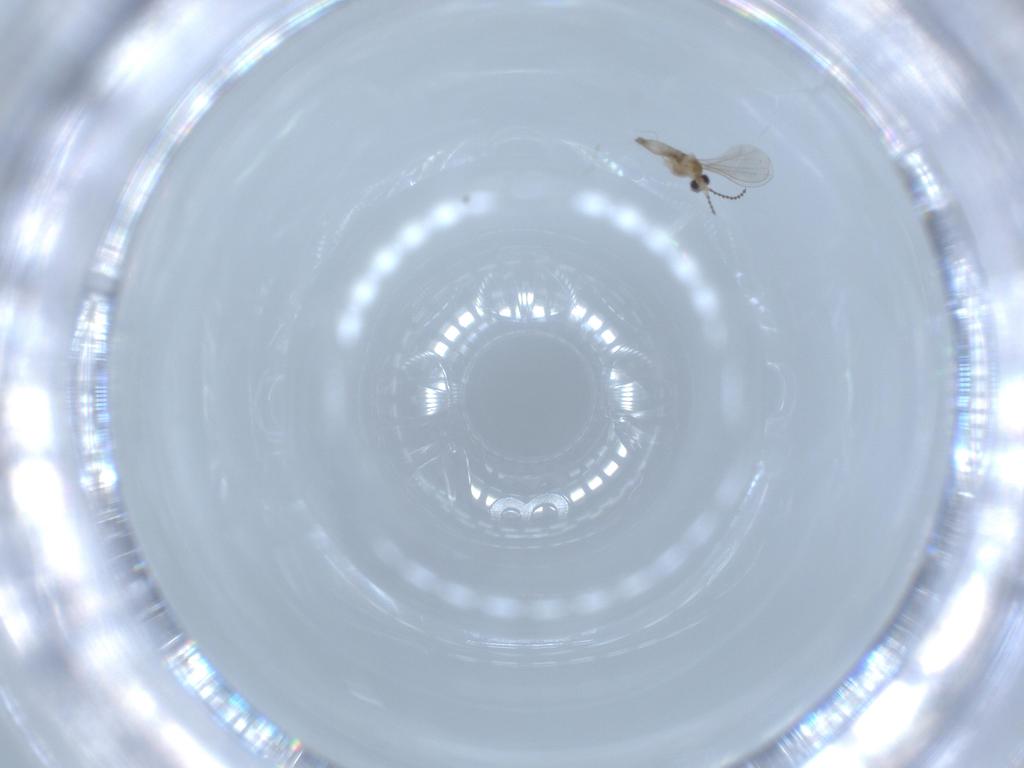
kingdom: Animalia
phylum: Arthropoda
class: Insecta
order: Diptera
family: Cecidomyiidae
